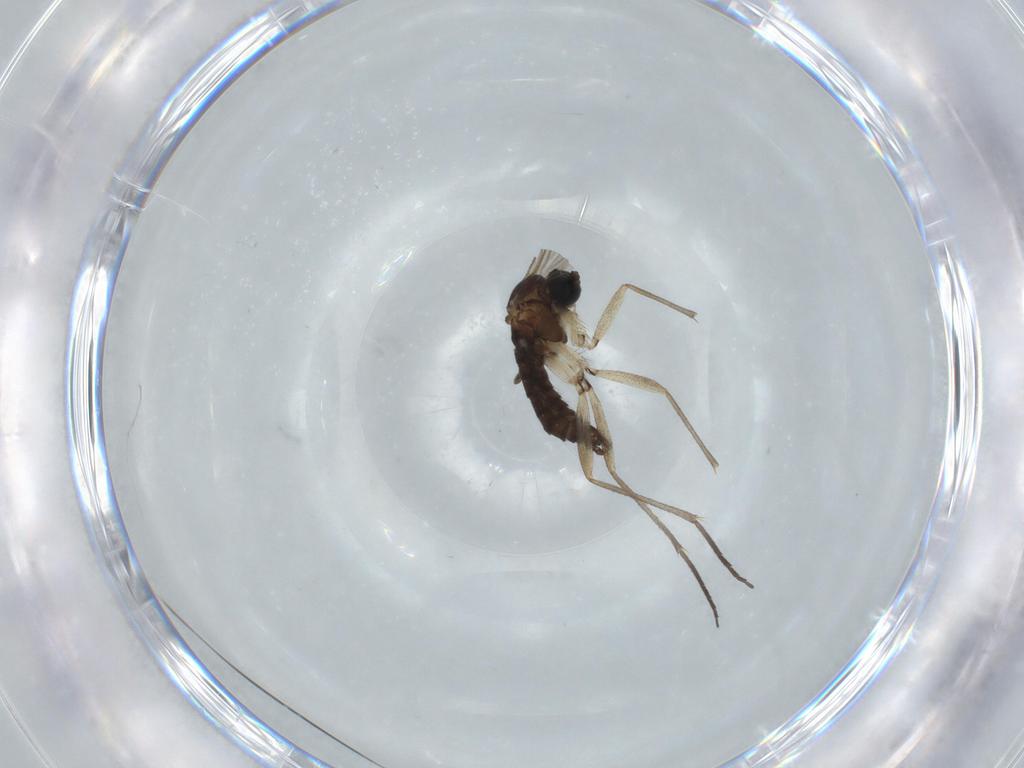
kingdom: Animalia
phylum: Arthropoda
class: Insecta
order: Diptera
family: Sciaridae
